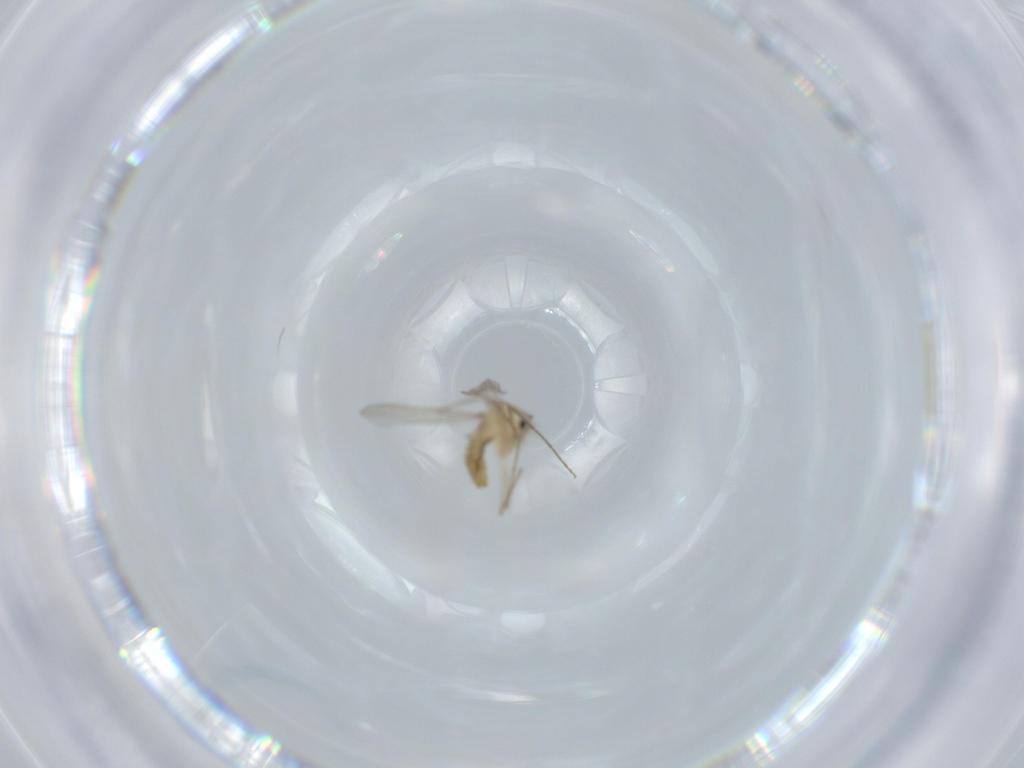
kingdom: Animalia
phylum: Arthropoda
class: Insecta
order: Diptera
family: Chironomidae
